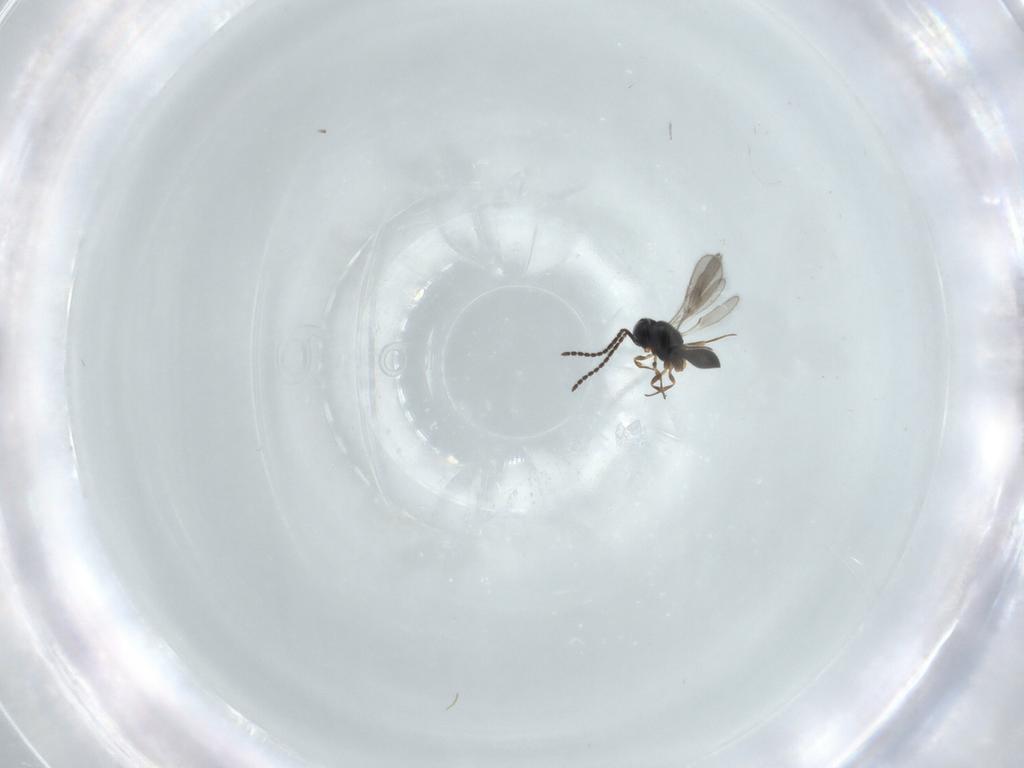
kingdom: Animalia
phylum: Arthropoda
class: Insecta
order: Hymenoptera
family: Scelionidae
